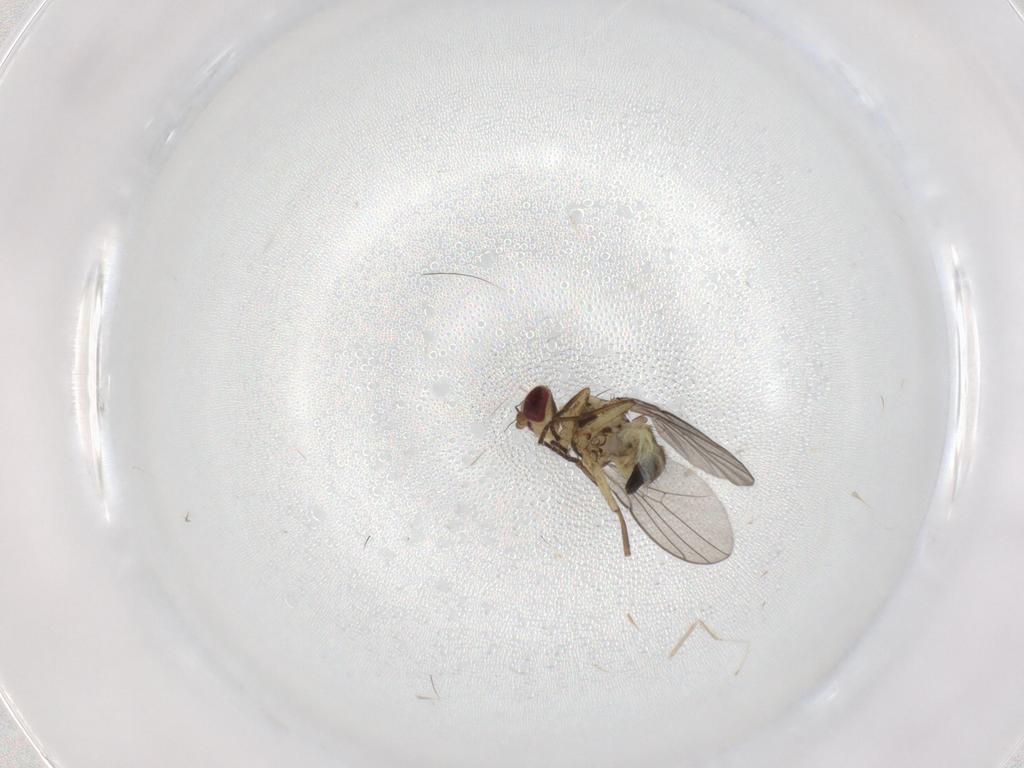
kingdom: Animalia
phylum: Arthropoda
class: Insecta
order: Diptera
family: Agromyzidae
